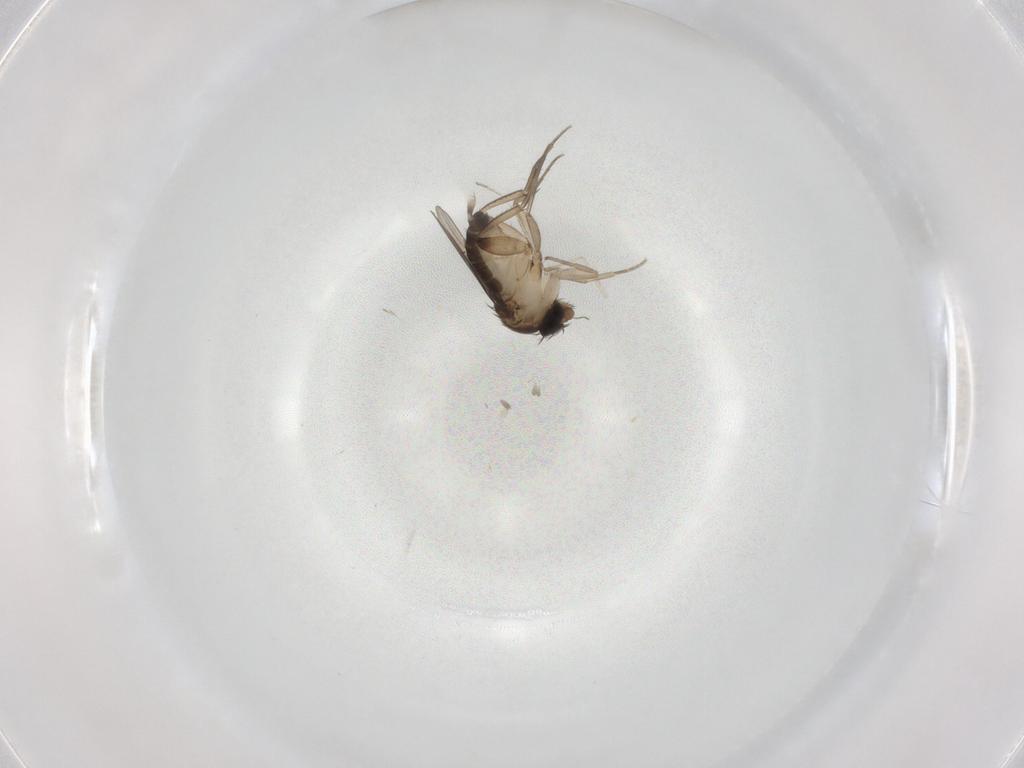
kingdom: Animalia
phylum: Arthropoda
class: Insecta
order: Diptera
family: Phoridae
